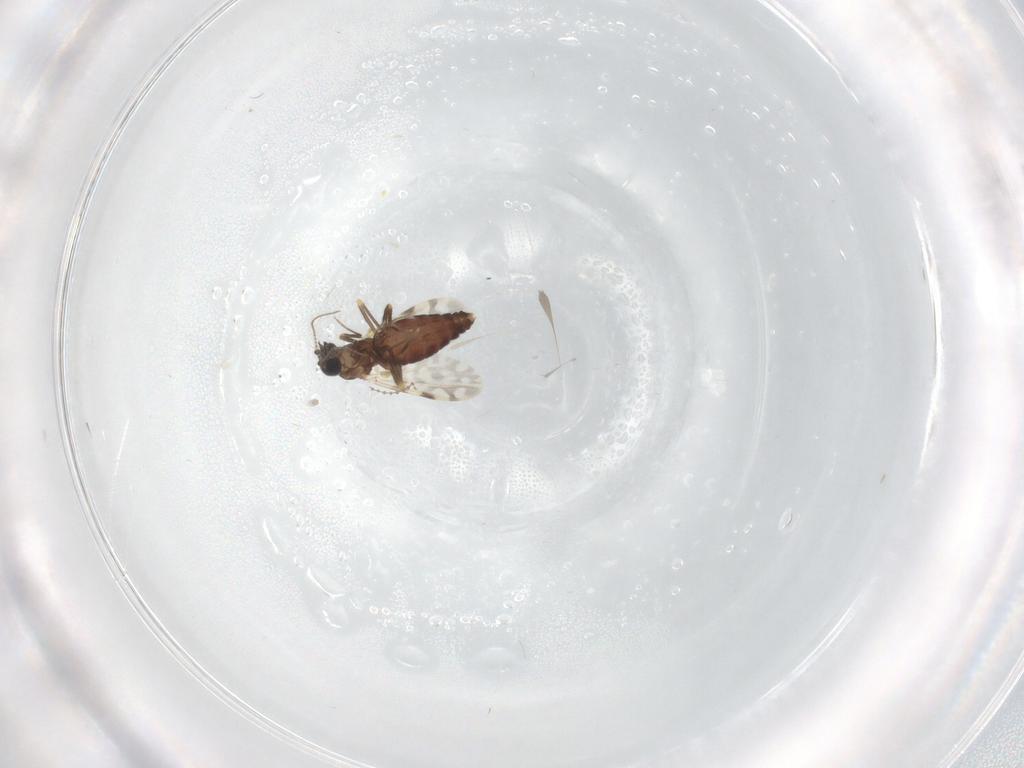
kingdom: Animalia
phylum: Arthropoda
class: Insecta
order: Diptera
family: Ceratopogonidae
